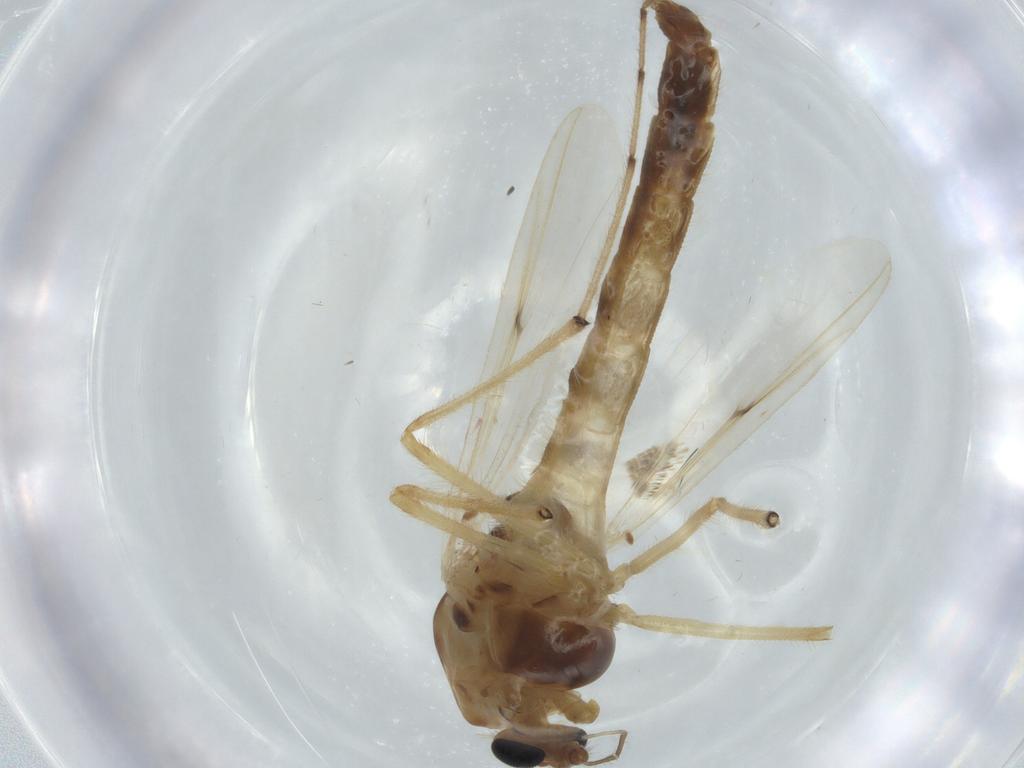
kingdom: Animalia
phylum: Arthropoda
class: Insecta
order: Diptera
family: Chironomidae
